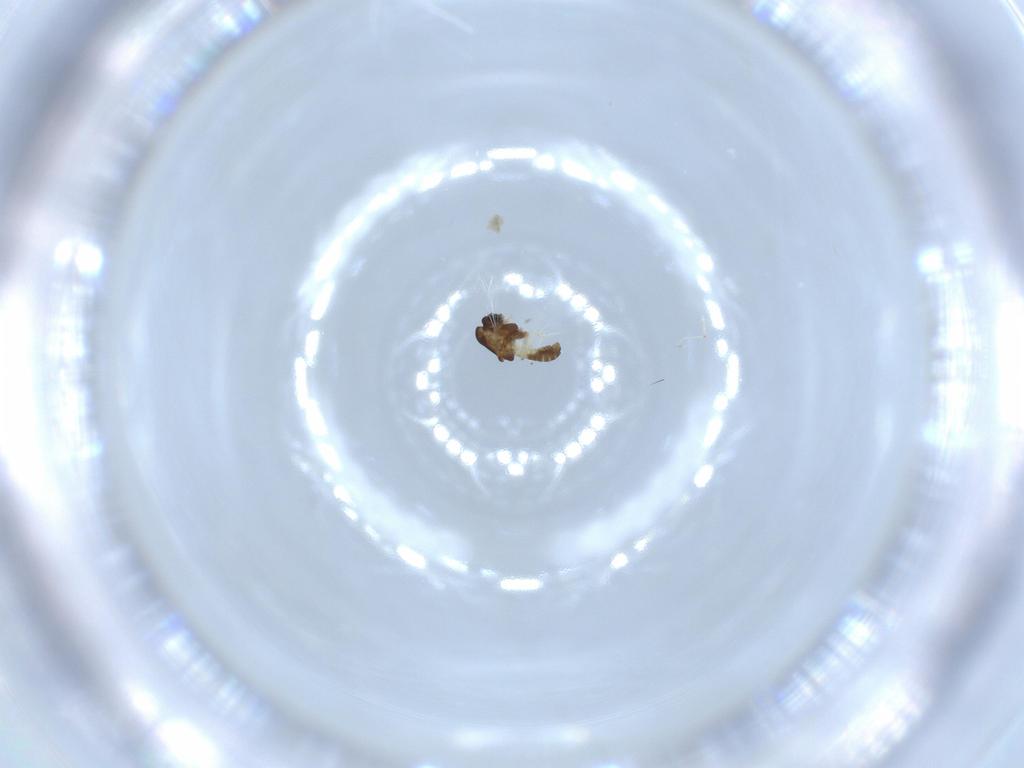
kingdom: Animalia
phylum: Arthropoda
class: Insecta
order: Diptera
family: Chironomidae
